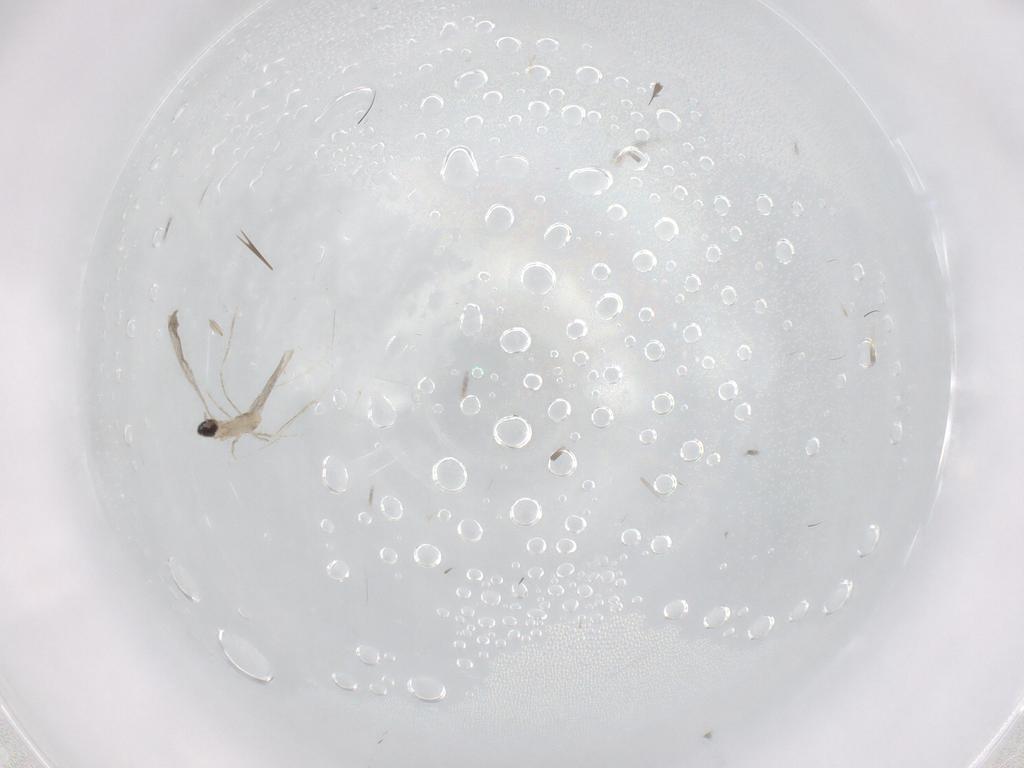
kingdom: Animalia
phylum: Arthropoda
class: Insecta
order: Diptera
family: Cecidomyiidae
